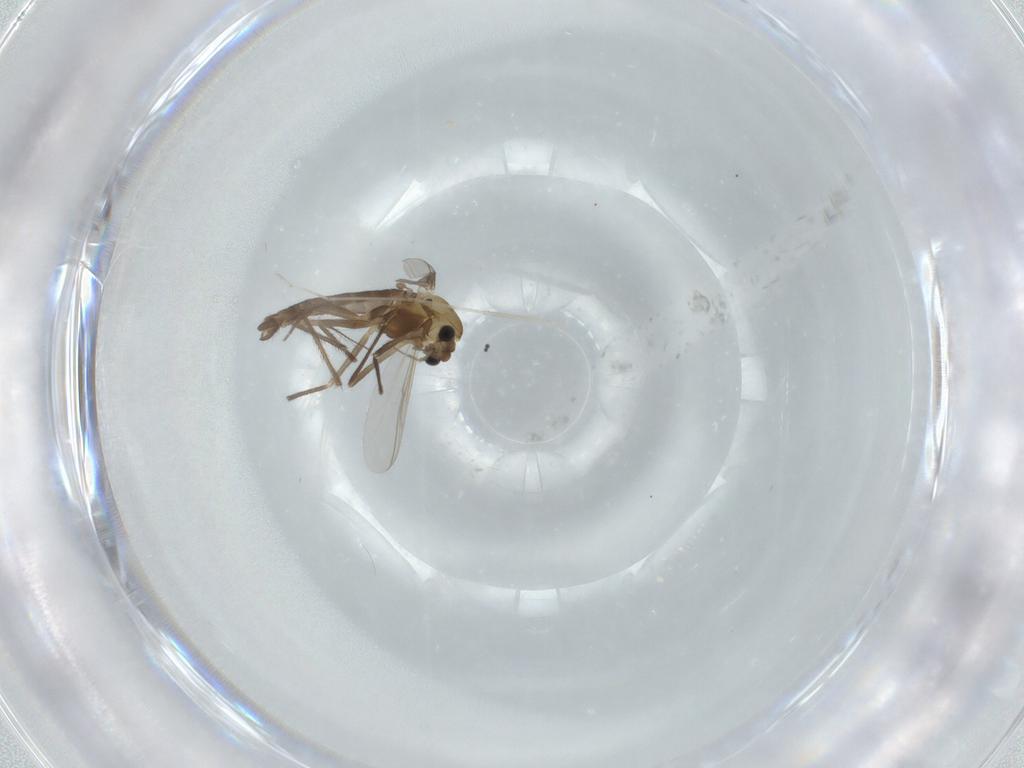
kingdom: Animalia
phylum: Arthropoda
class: Insecta
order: Diptera
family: Chironomidae
